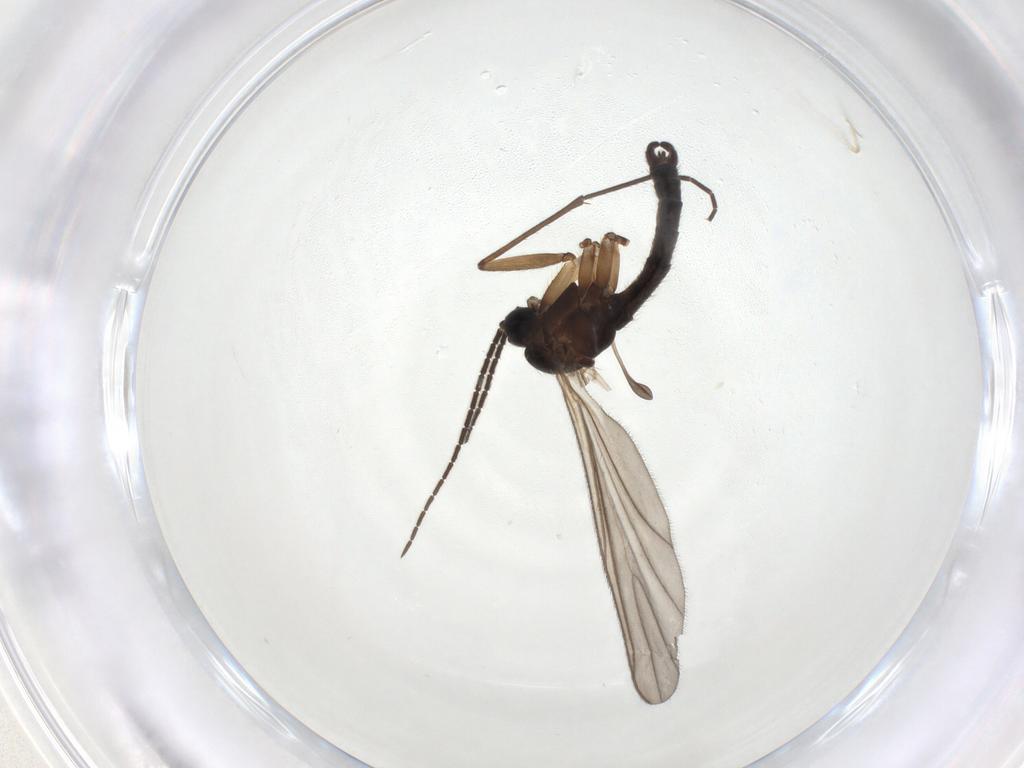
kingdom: Animalia
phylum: Arthropoda
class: Insecta
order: Diptera
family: Sciaridae
